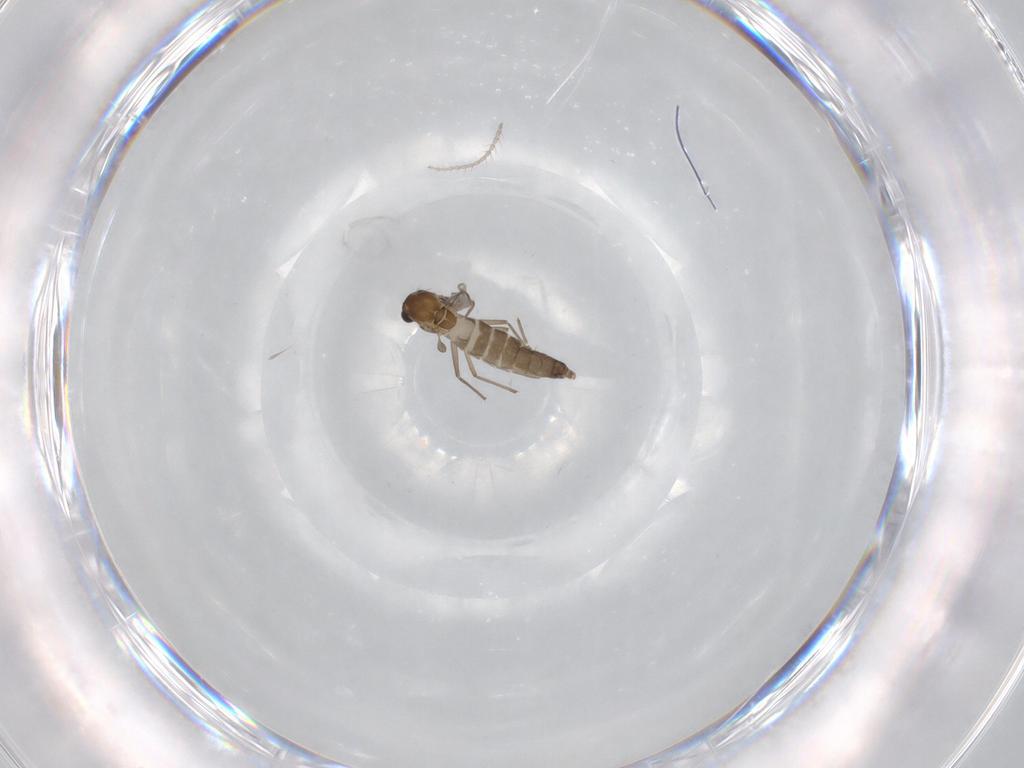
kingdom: Animalia
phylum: Arthropoda
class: Insecta
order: Diptera
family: Chironomidae
